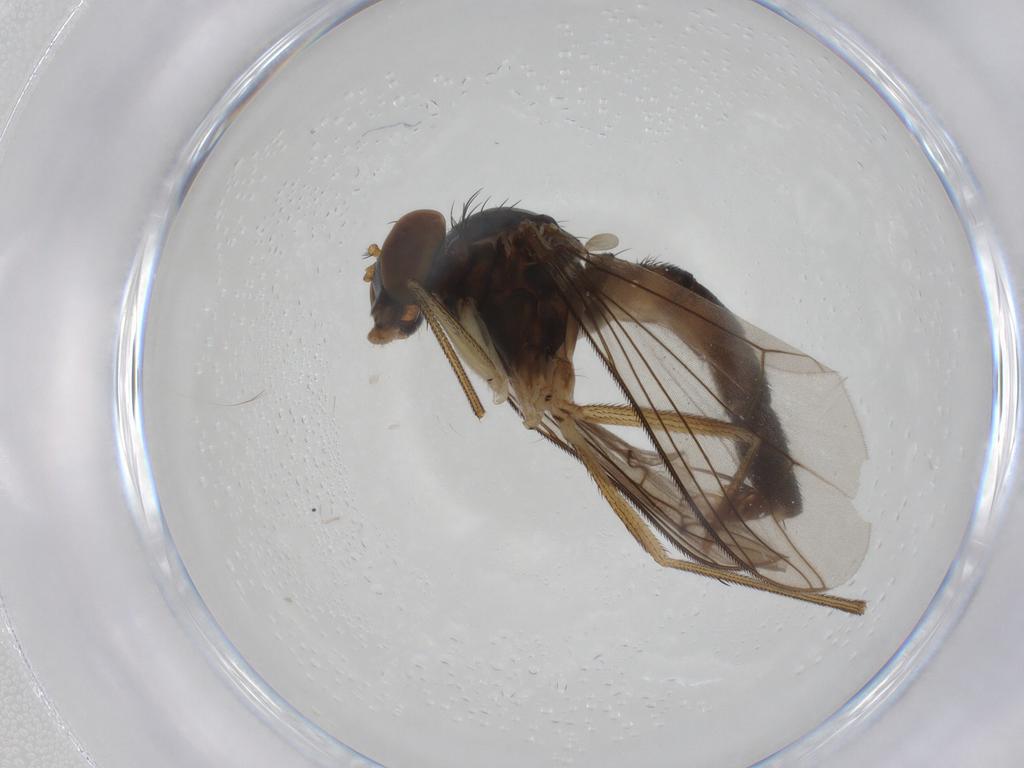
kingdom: Animalia
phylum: Arthropoda
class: Insecta
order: Diptera
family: Dolichopodidae
